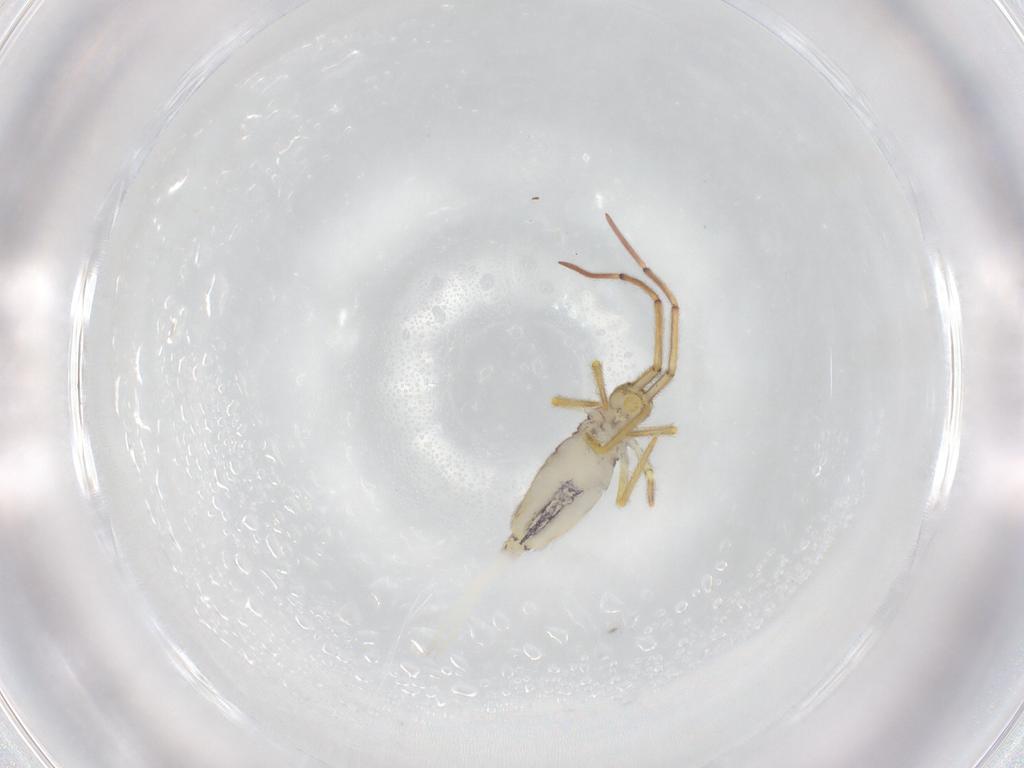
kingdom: Animalia
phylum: Arthropoda
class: Collembola
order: Entomobryomorpha
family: Paronellidae
